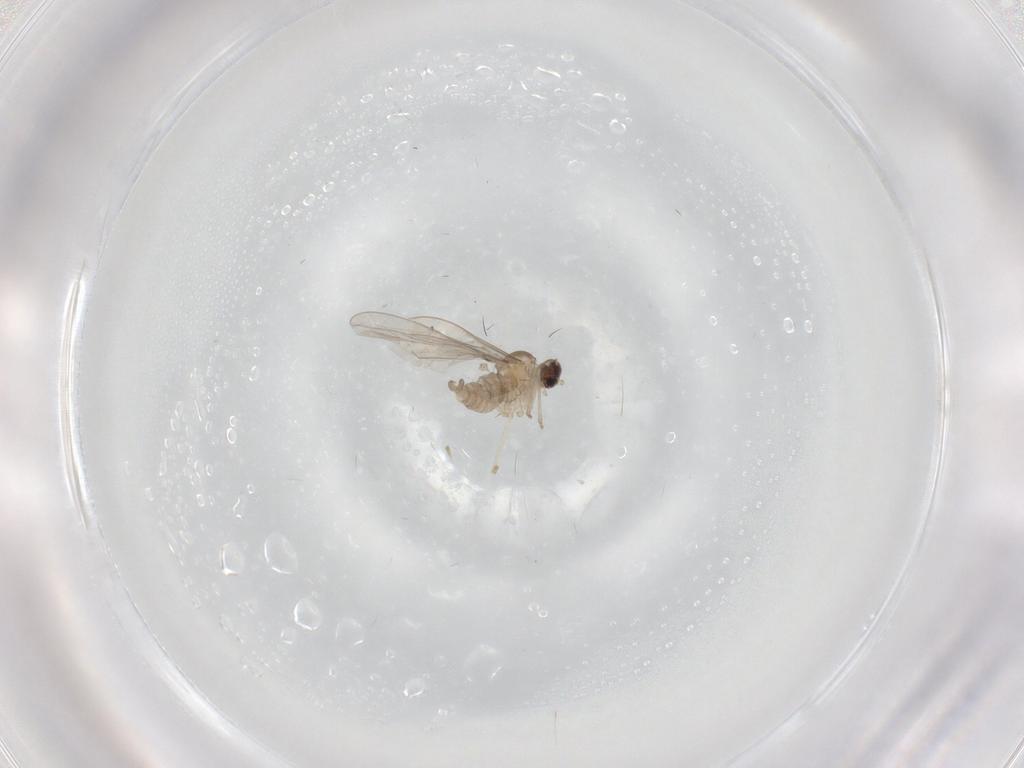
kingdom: Animalia
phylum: Arthropoda
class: Insecta
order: Diptera
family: Cecidomyiidae
